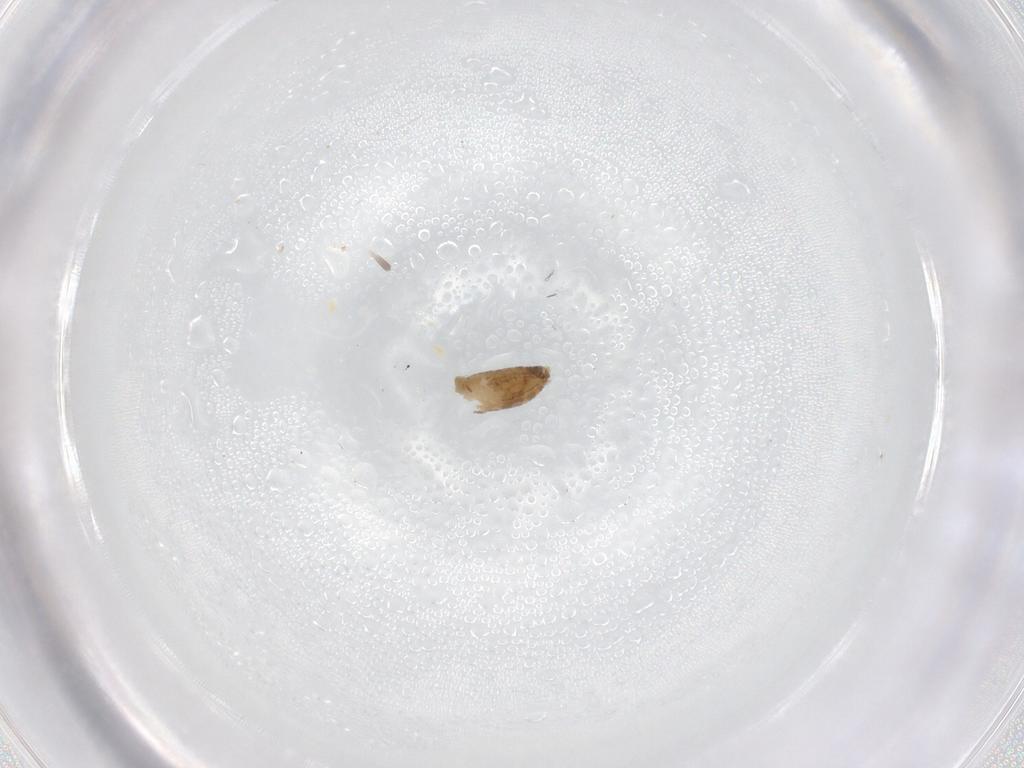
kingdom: Animalia
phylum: Arthropoda
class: Insecta
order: Diptera
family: Chironomidae
